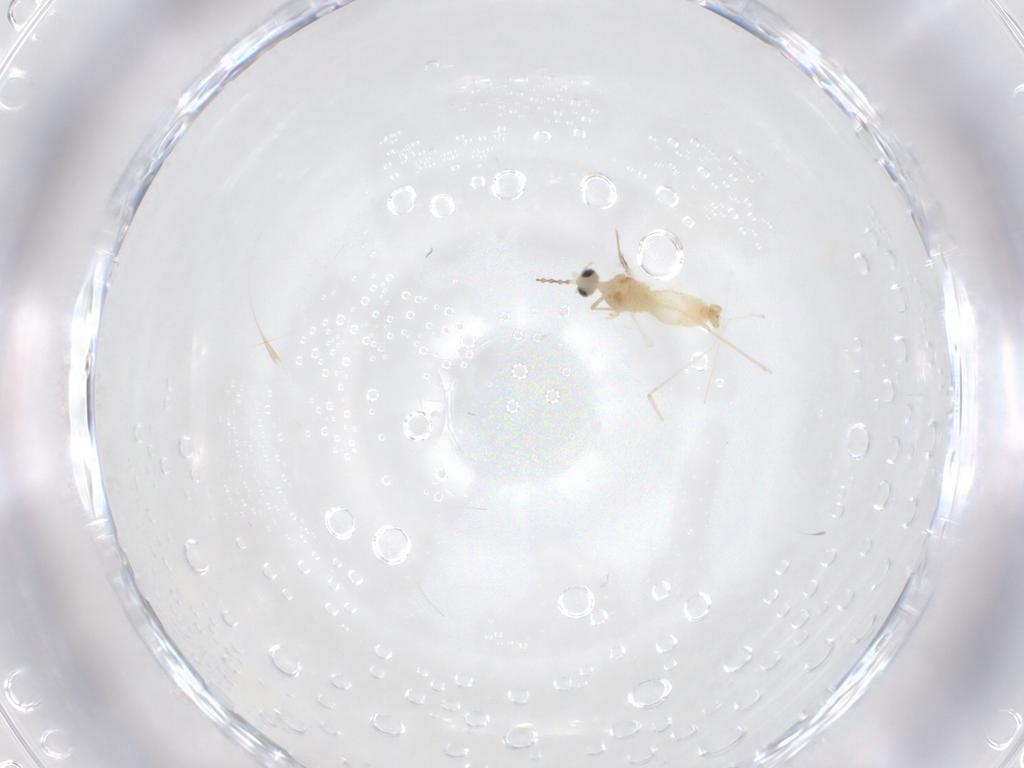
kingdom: Animalia
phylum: Arthropoda
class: Insecta
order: Diptera
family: Cecidomyiidae
